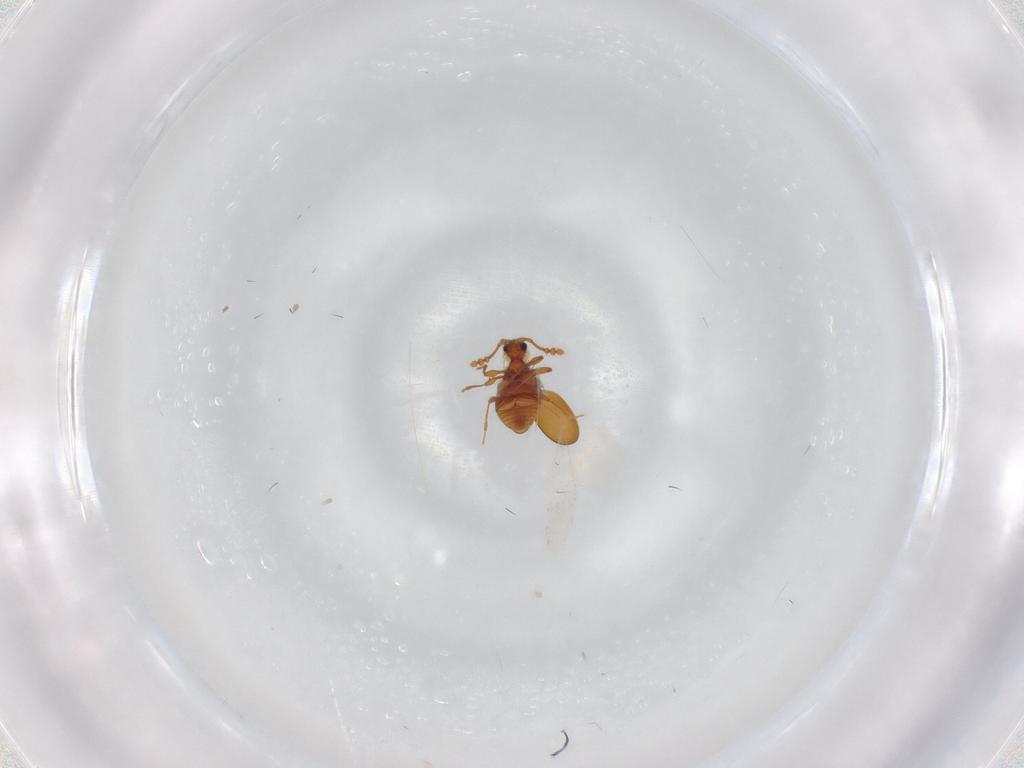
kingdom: Animalia
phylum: Arthropoda
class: Insecta
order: Coleoptera
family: Staphylinidae
